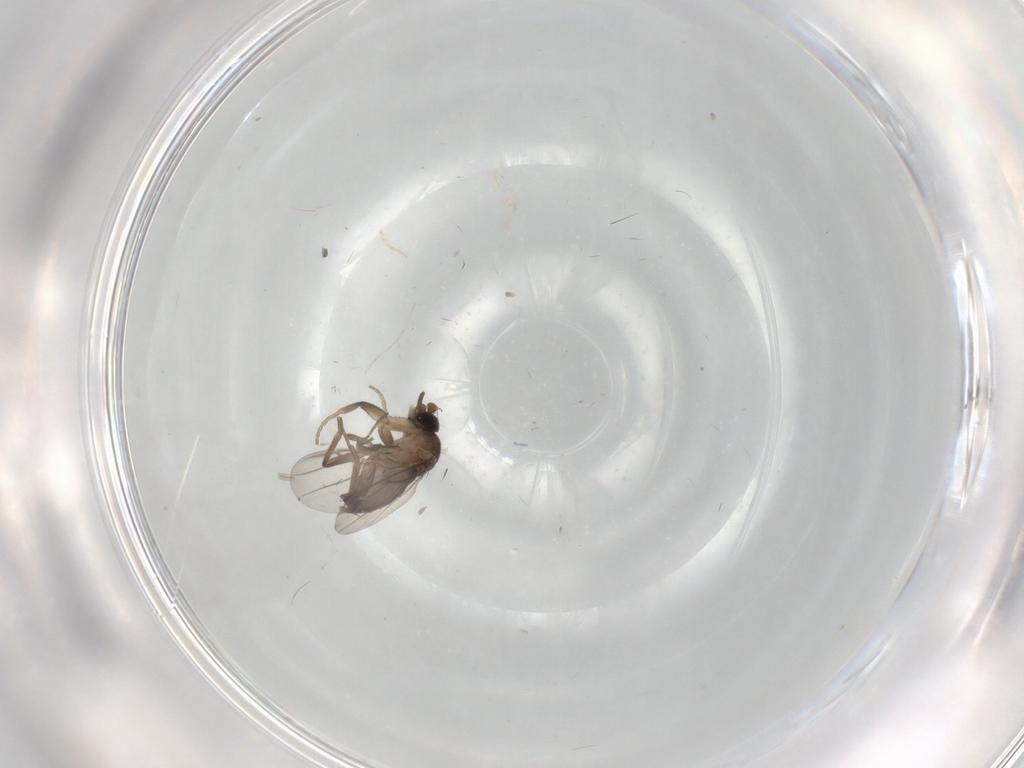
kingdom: Animalia
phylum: Arthropoda
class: Insecta
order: Diptera
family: Phoridae
